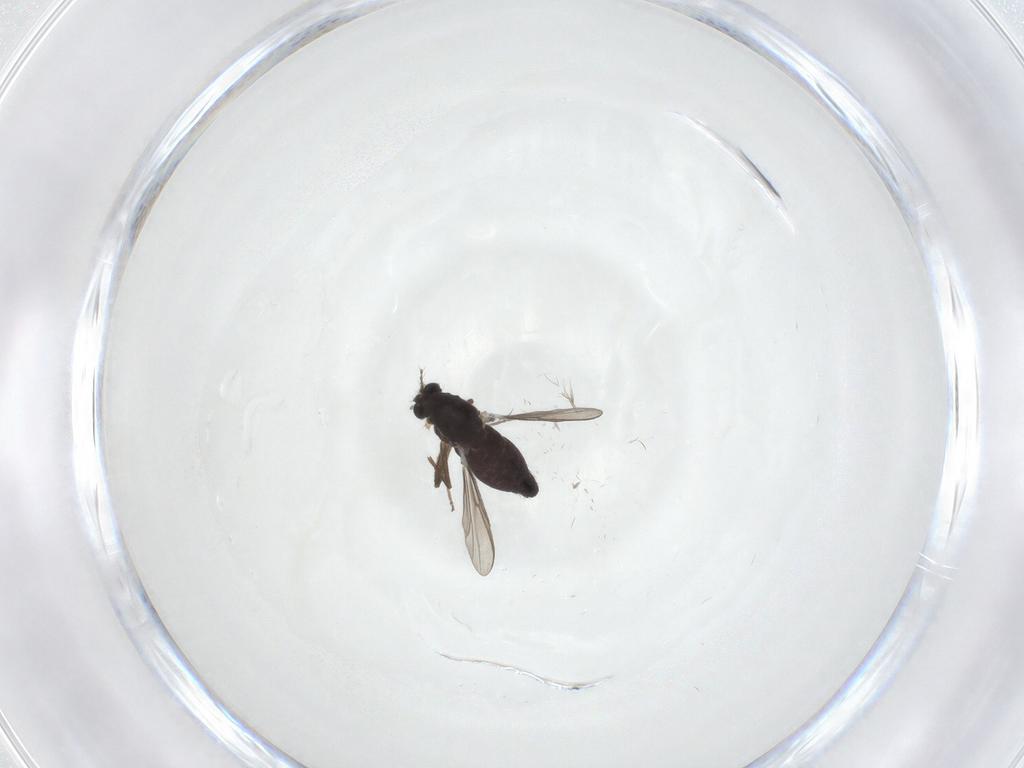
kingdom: Animalia
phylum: Arthropoda
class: Insecta
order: Diptera
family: Chironomidae
